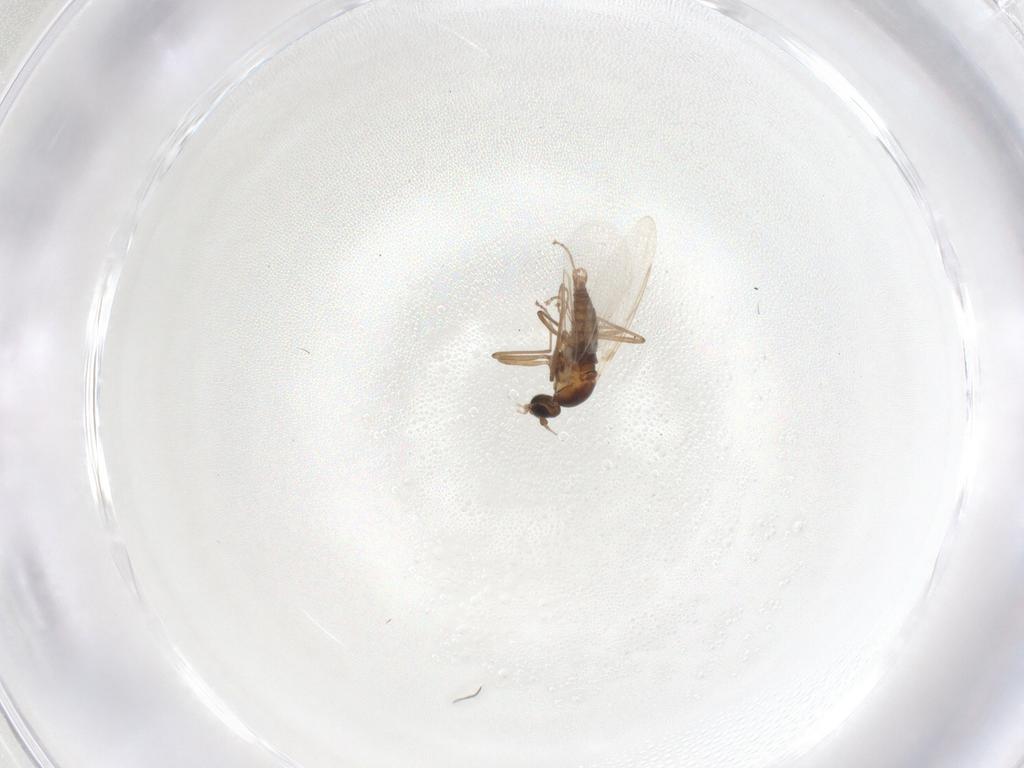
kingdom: Animalia
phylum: Arthropoda
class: Insecta
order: Diptera
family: Cecidomyiidae
